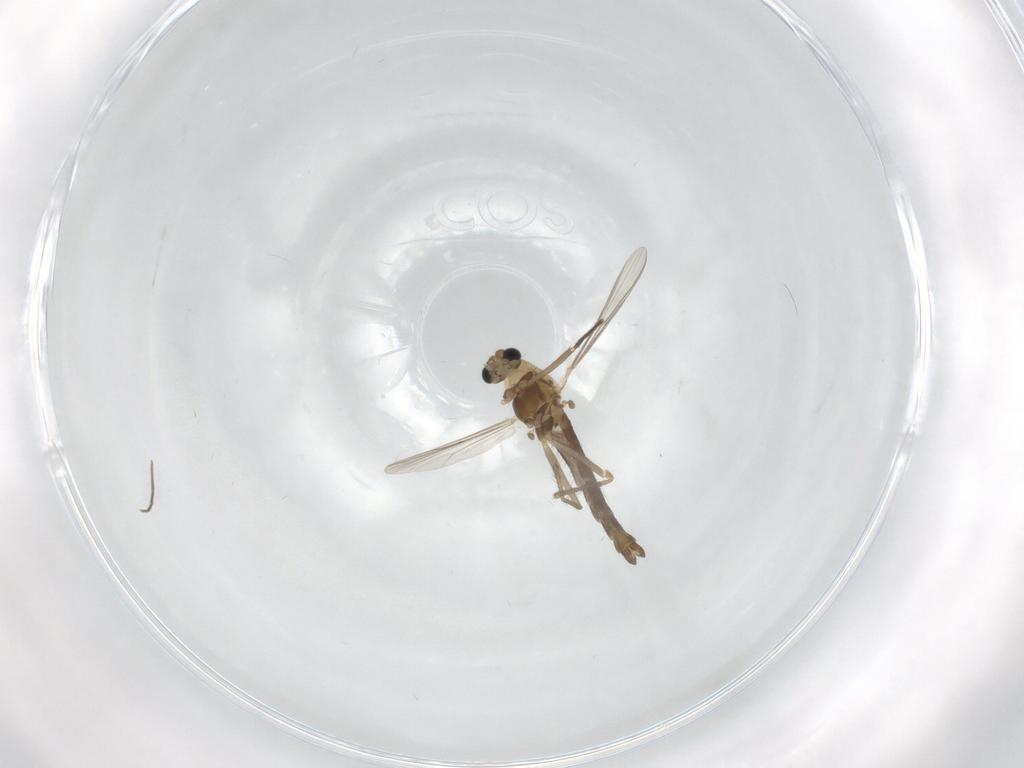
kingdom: Animalia
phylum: Arthropoda
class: Insecta
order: Diptera
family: Chironomidae
